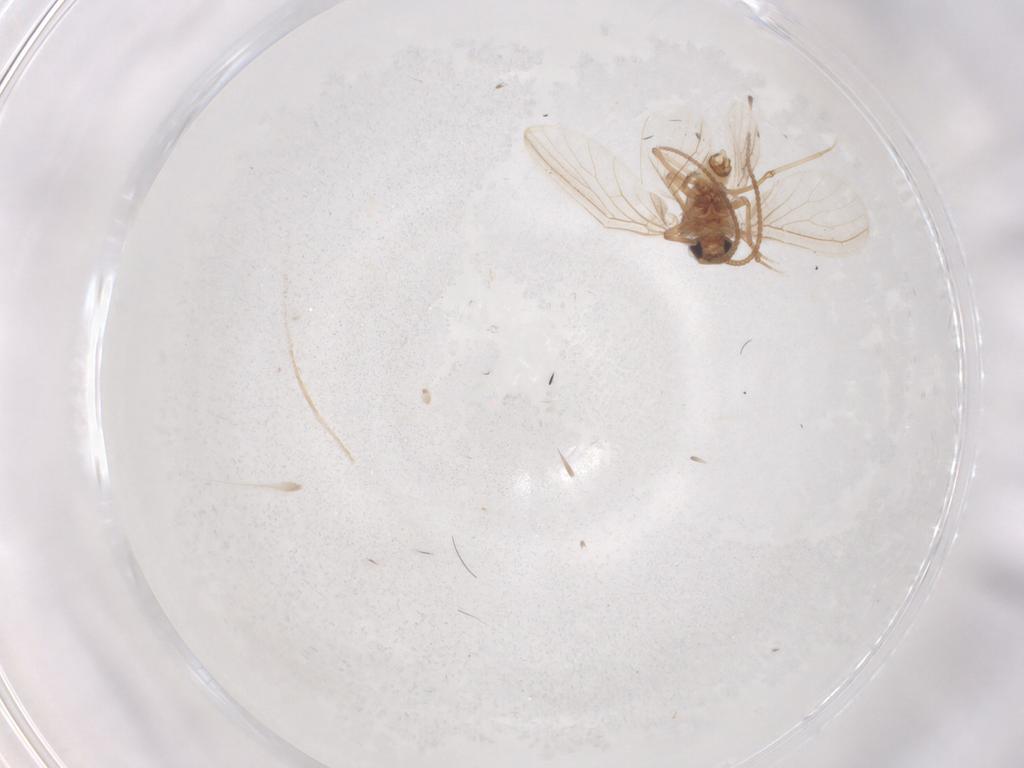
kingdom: Animalia
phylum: Arthropoda
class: Insecta
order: Neuroptera
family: Coniopterygidae
